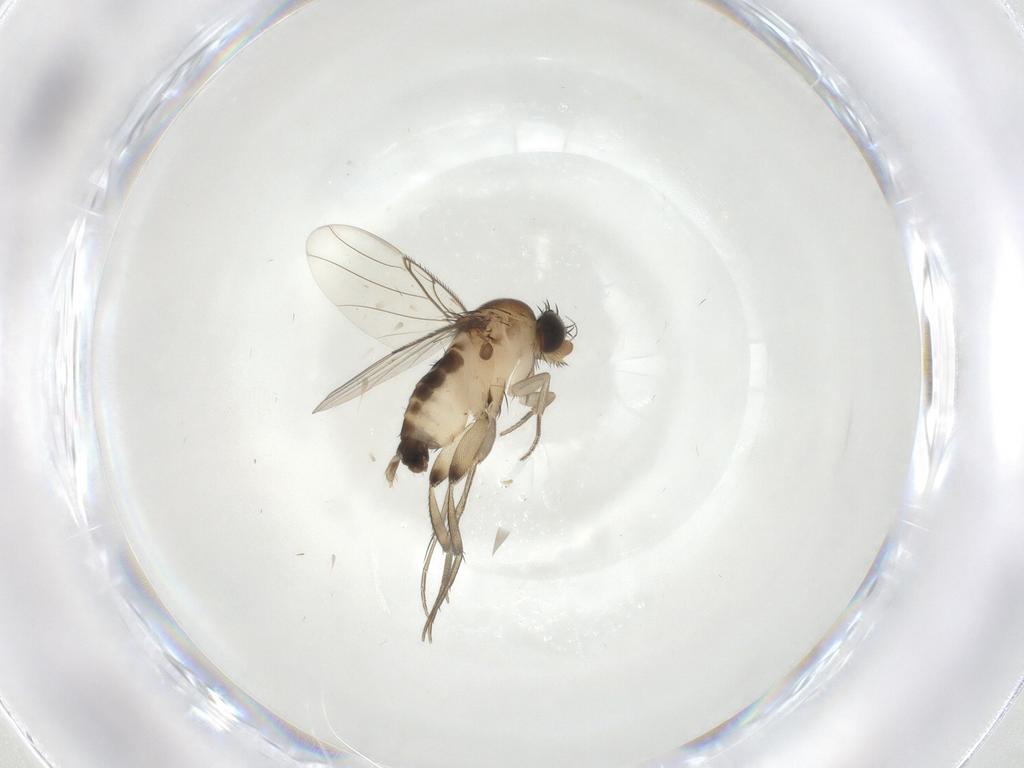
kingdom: Animalia
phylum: Arthropoda
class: Insecta
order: Diptera
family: Phoridae
